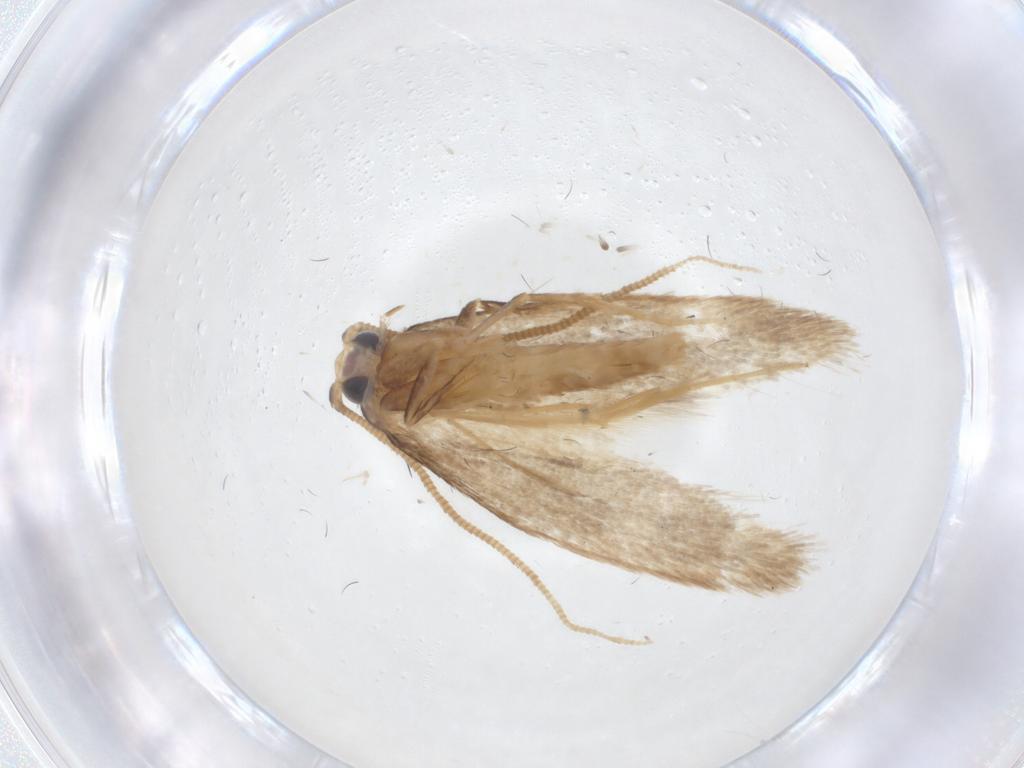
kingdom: Animalia
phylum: Arthropoda
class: Insecta
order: Zygentoma
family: Lepismatidae
